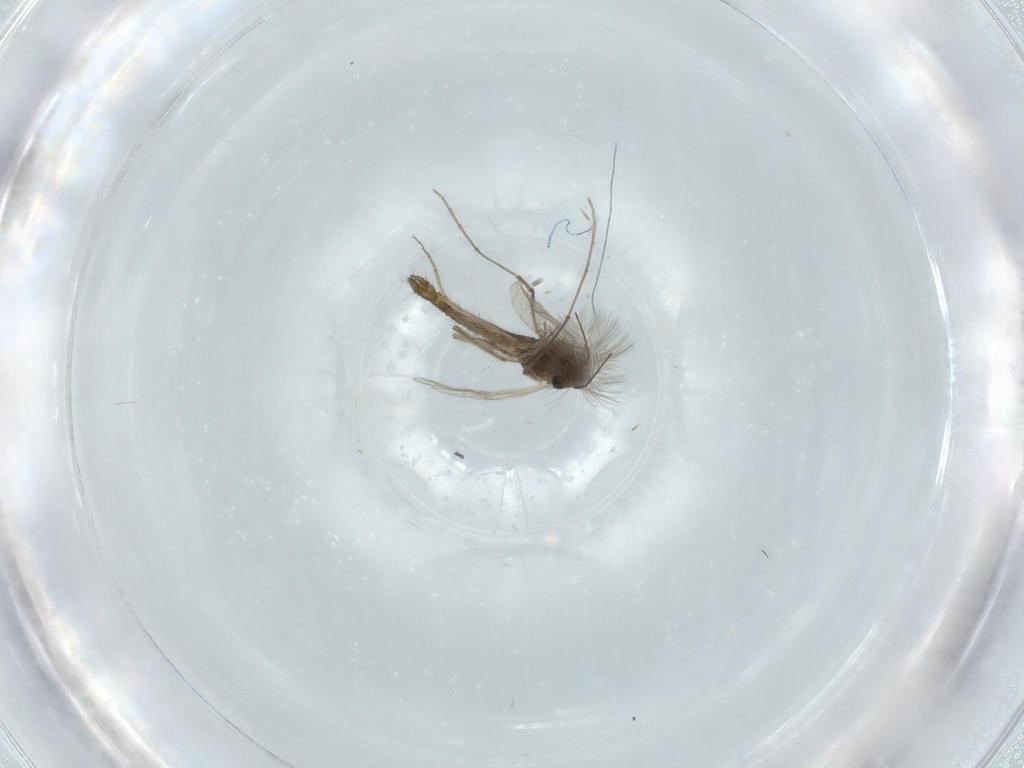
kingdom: Animalia
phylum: Arthropoda
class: Insecta
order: Diptera
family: Chironomidae
